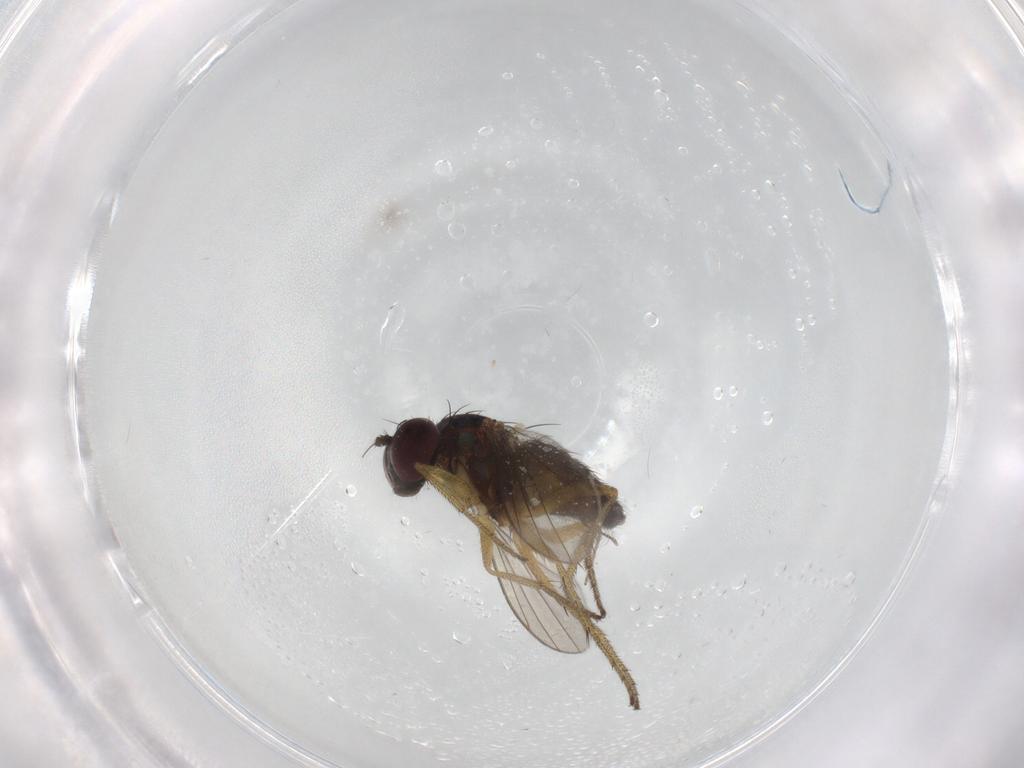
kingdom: Animalia
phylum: Arthropoda
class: Insecta
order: Diptera
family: Dolichopodidae
